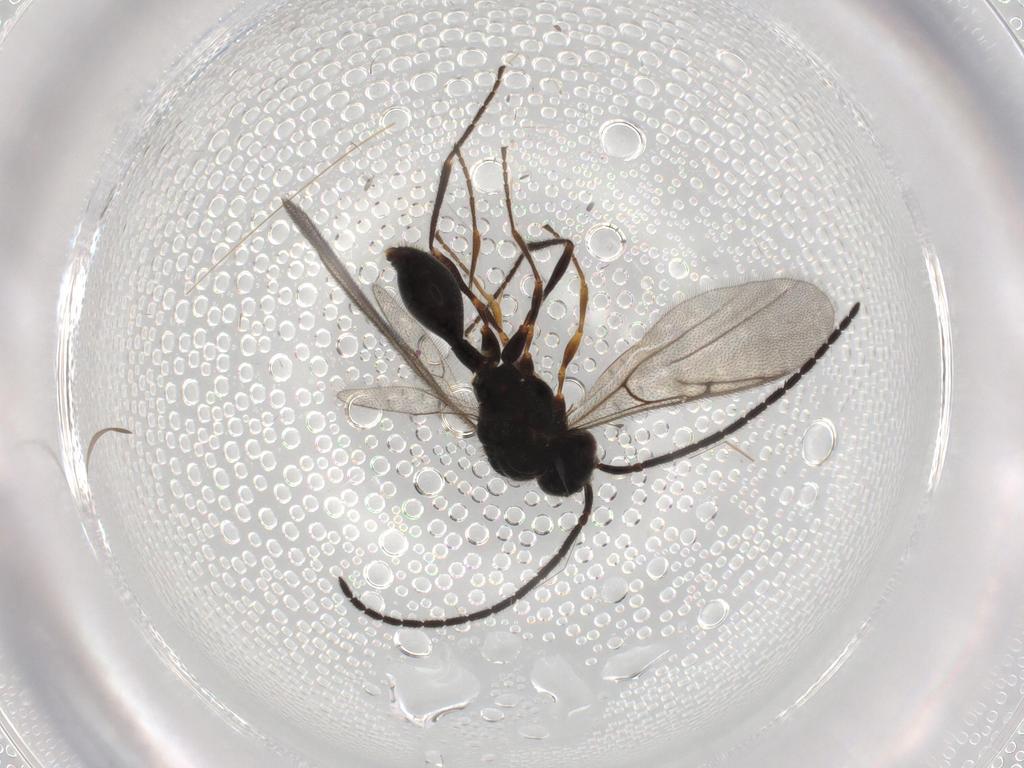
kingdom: Animalia
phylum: Arthropoda
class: Insecta
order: Hymenoptera
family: Diapriidae
